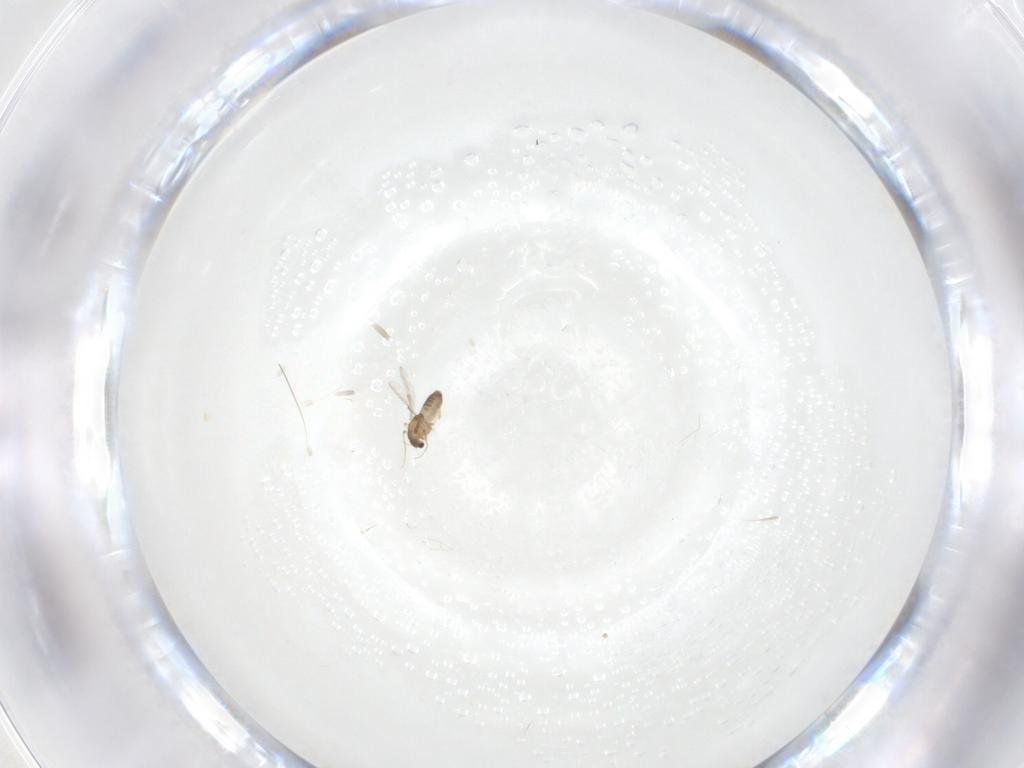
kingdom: Animalia
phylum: Arthropoda
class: Insecta
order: Diptera
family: Chironomidae
